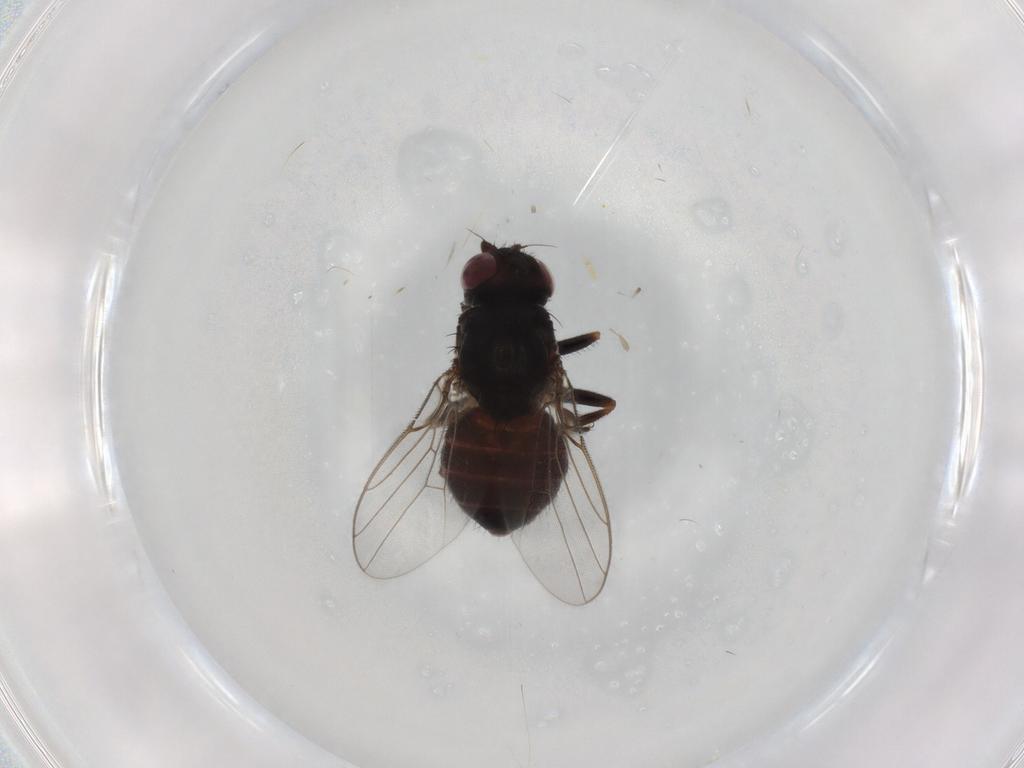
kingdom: Animalia
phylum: Arthropoda
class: Insecta
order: Diptera
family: Chloropidae
